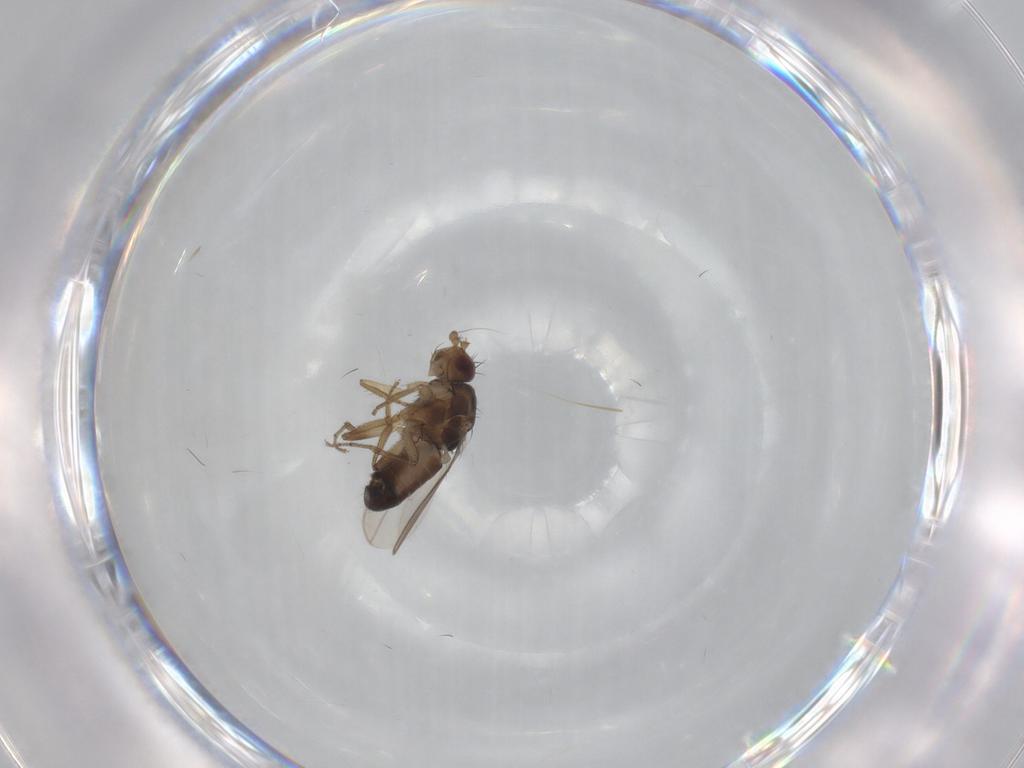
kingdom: Animalia
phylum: Arthropoda
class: Insecta
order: Diptera
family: Sphaeroceridae
